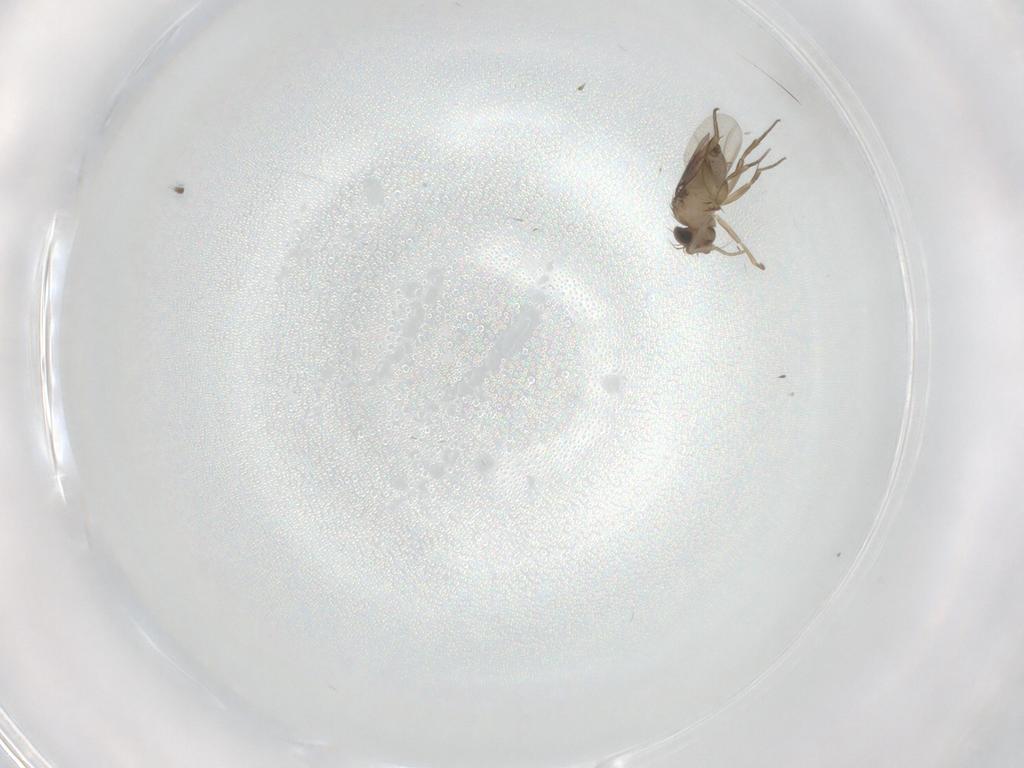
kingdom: Animalia
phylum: Arthropoda
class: Insecta
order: Diptera
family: Phoridae
